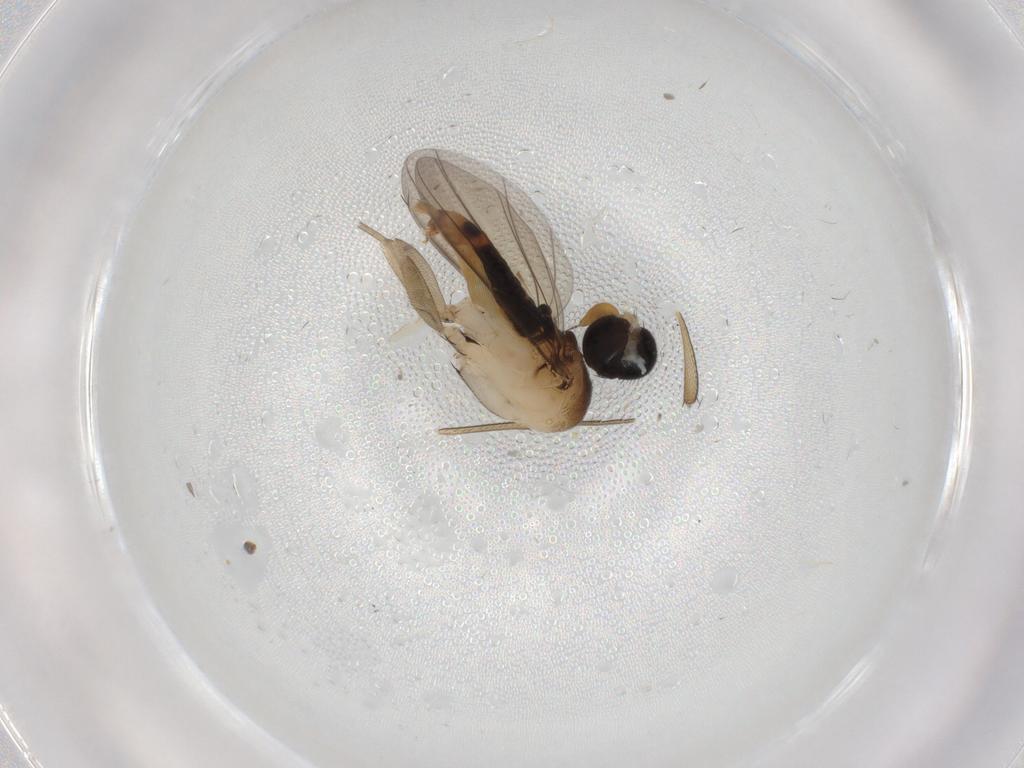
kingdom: Animalia
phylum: Arthropoda
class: Insecta
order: Diptera
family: Phoridae
